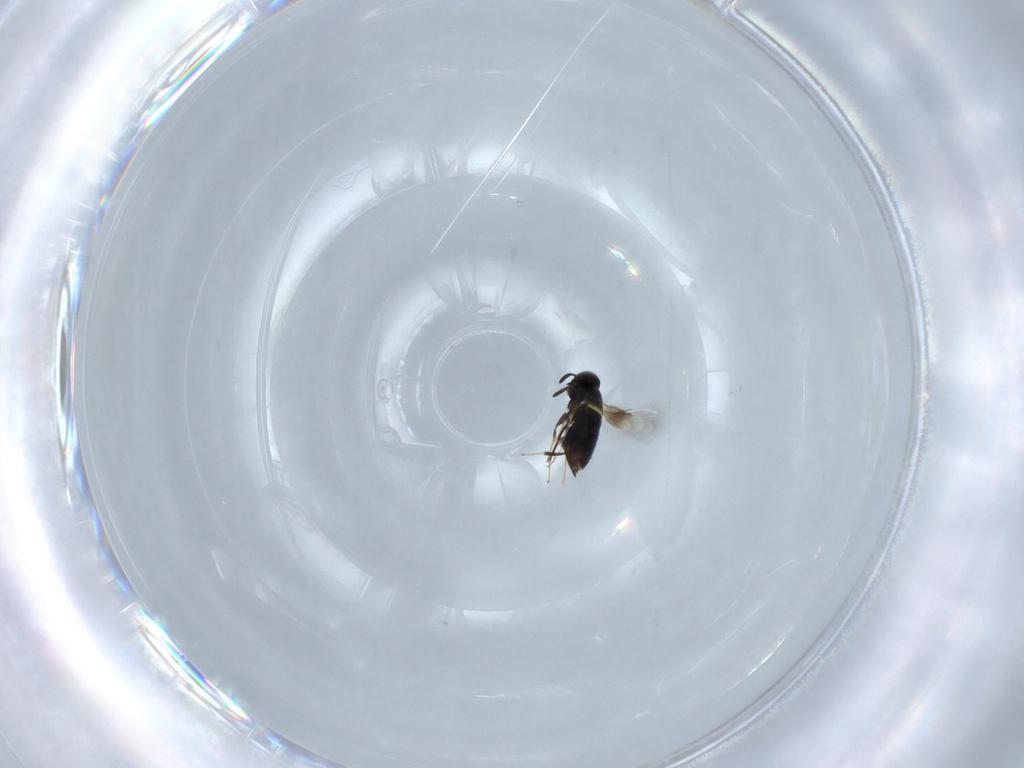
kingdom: Animalia
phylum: Arthropoda
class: Insecta
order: Hymenoptera
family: Signiphoridae
